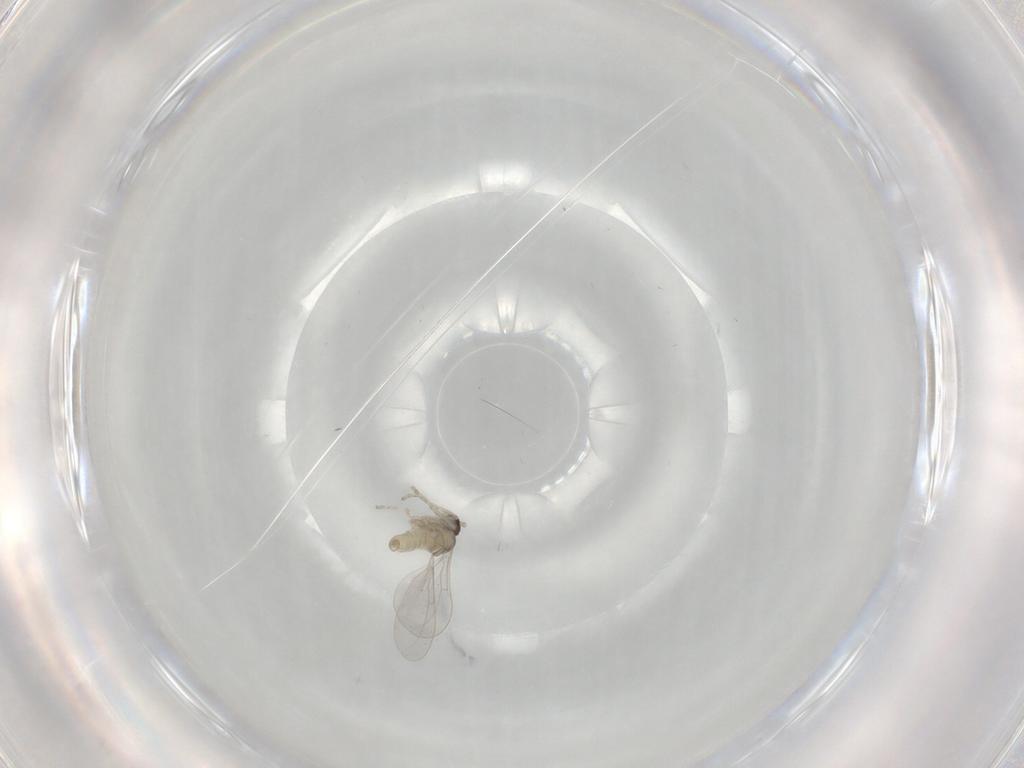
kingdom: Animalia
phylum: Arthropoda
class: Insecta
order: Diptera
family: Cecidomyiidae
